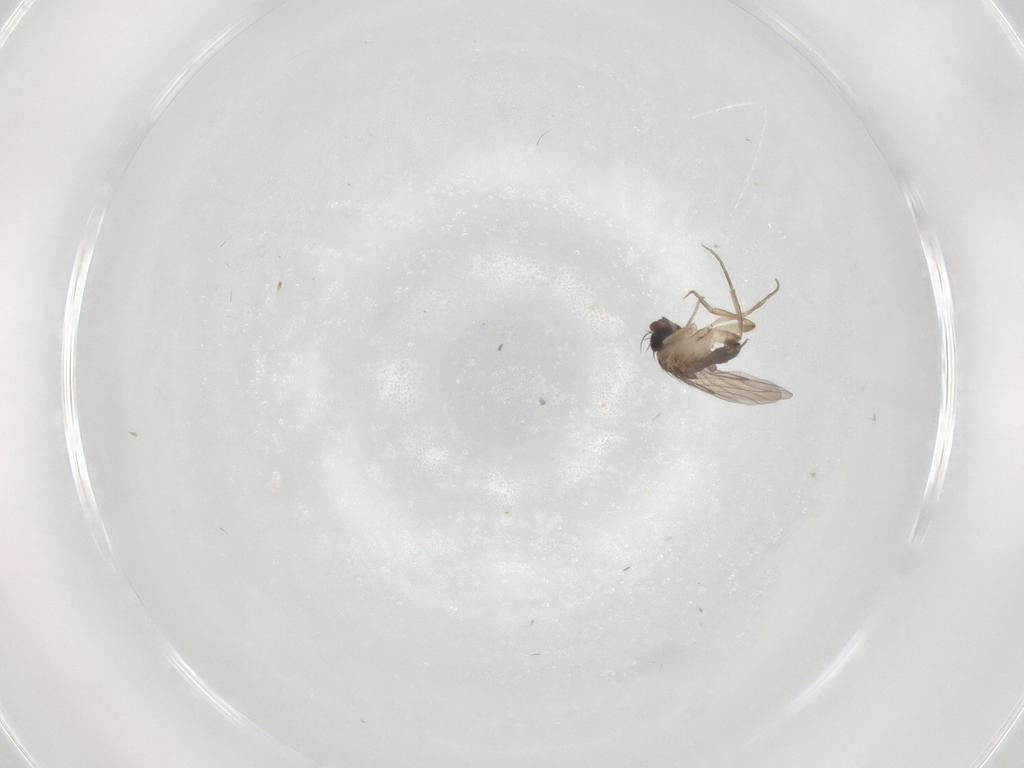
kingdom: Animalia
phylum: Arthropoda
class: Insecta
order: Diptera
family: Phoridae
